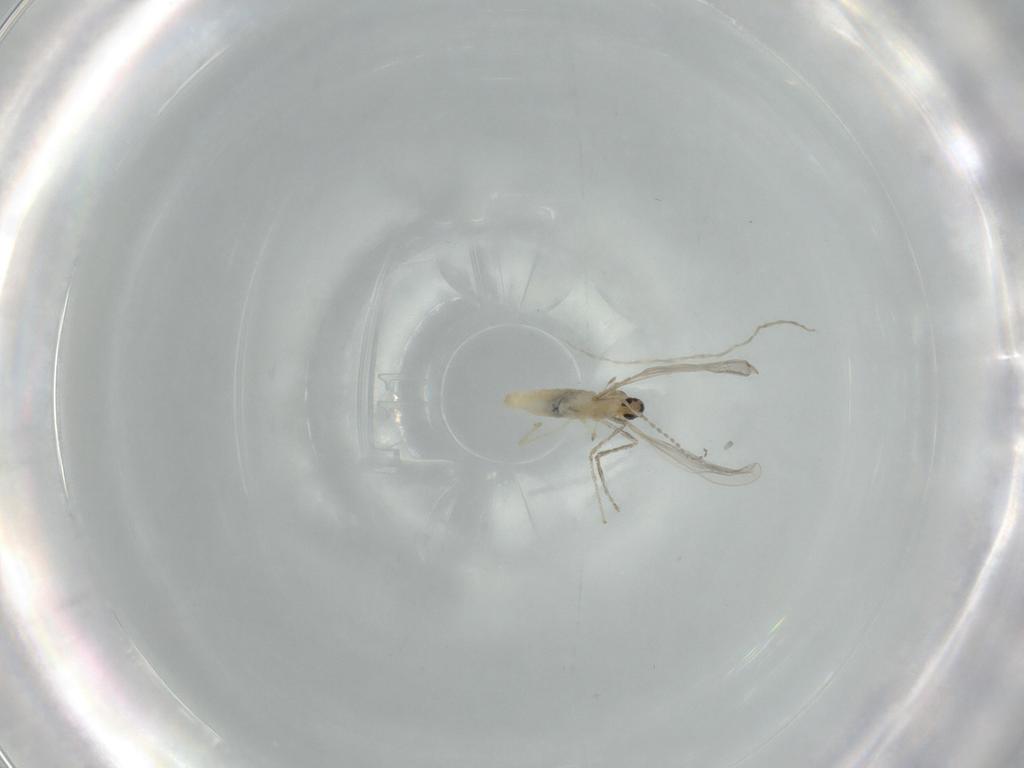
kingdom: Animalia
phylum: Arthropoda
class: Insecta
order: Diptera
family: Cecidomyiidae
